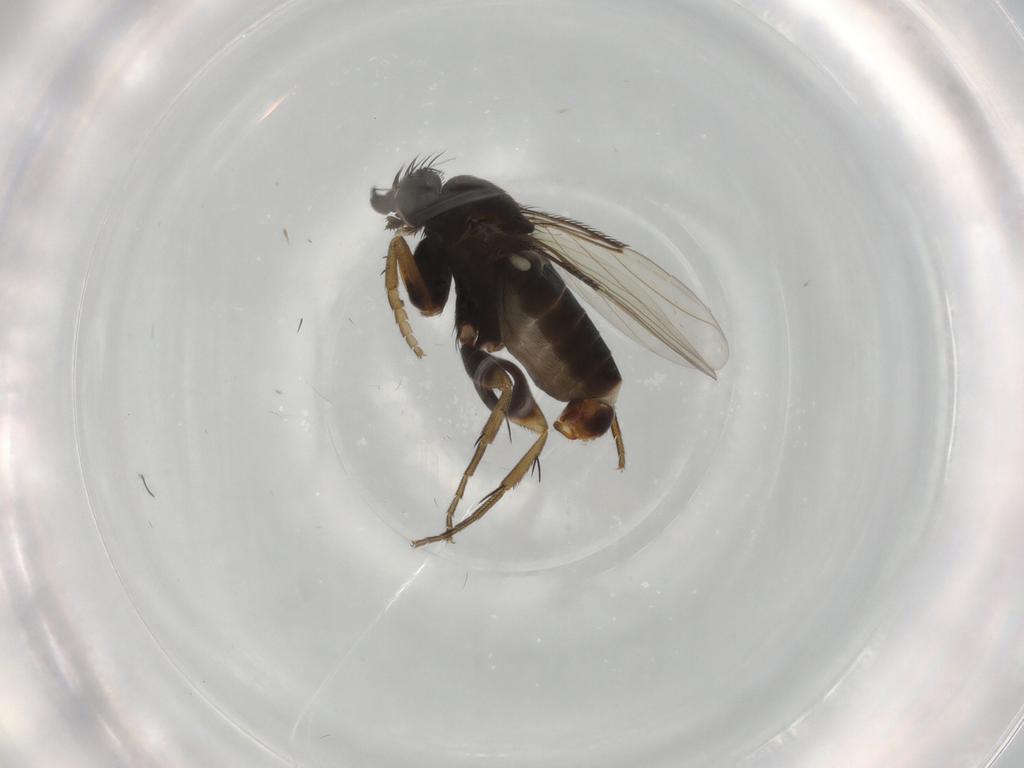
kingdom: Animalia
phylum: Arthropoda
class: Insecta
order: Diptera
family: Phoridae
